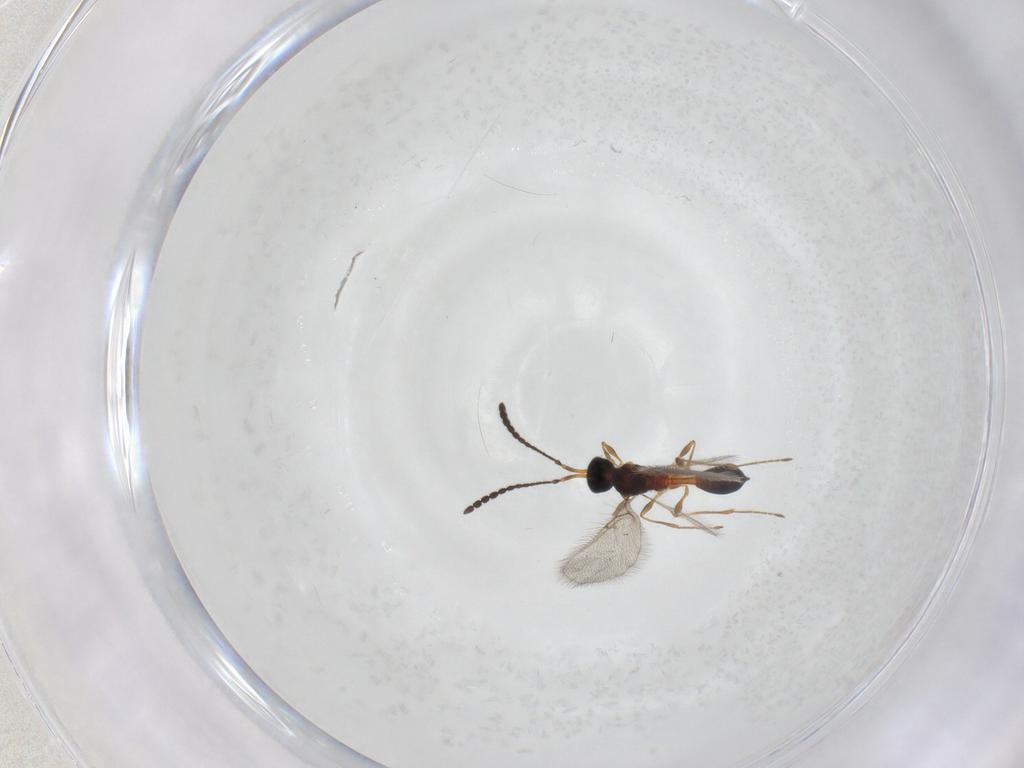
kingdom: Animalia
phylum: Arthropoda
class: Insecta
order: Hymenoptera
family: Diapriidae
